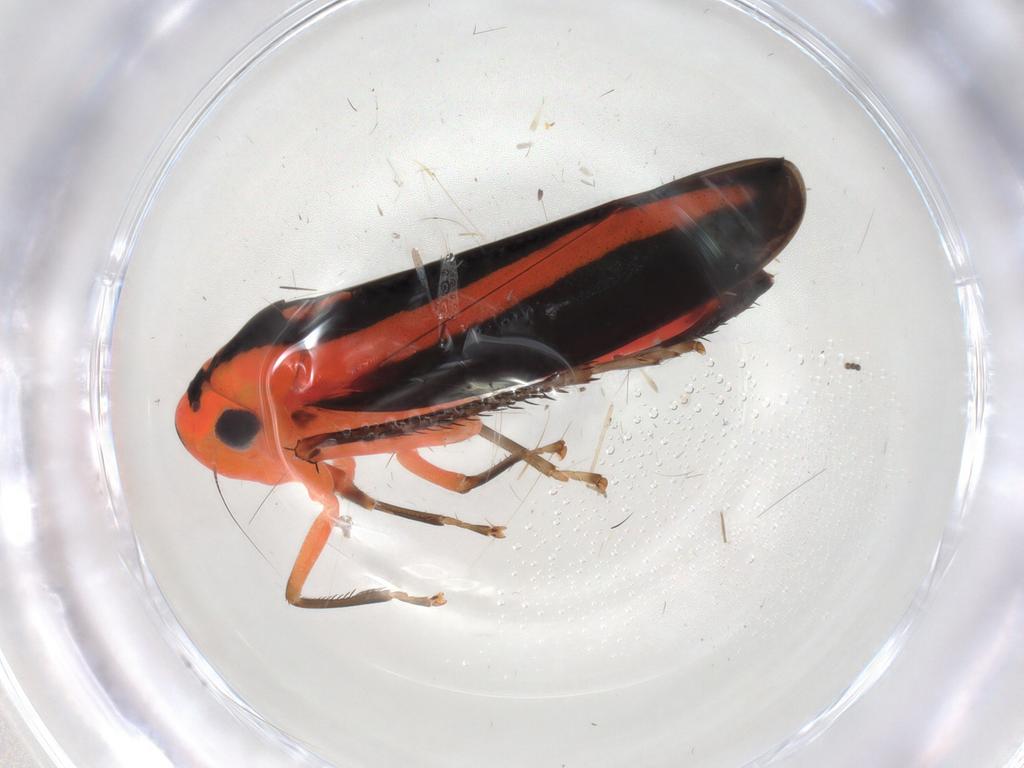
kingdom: Animalia
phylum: Arthropoda
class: Insecta
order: Hemiptera
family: Cicadellidae
